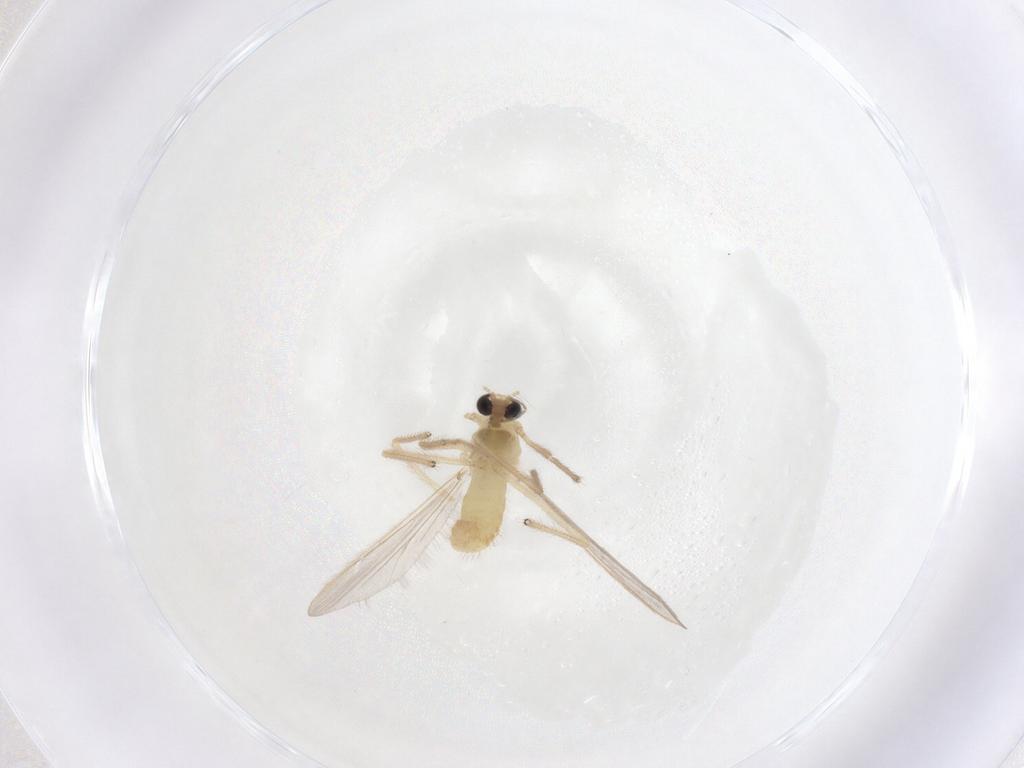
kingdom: Animalia
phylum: Arthropoda
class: Insecta
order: Diptera
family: Chironomidae
